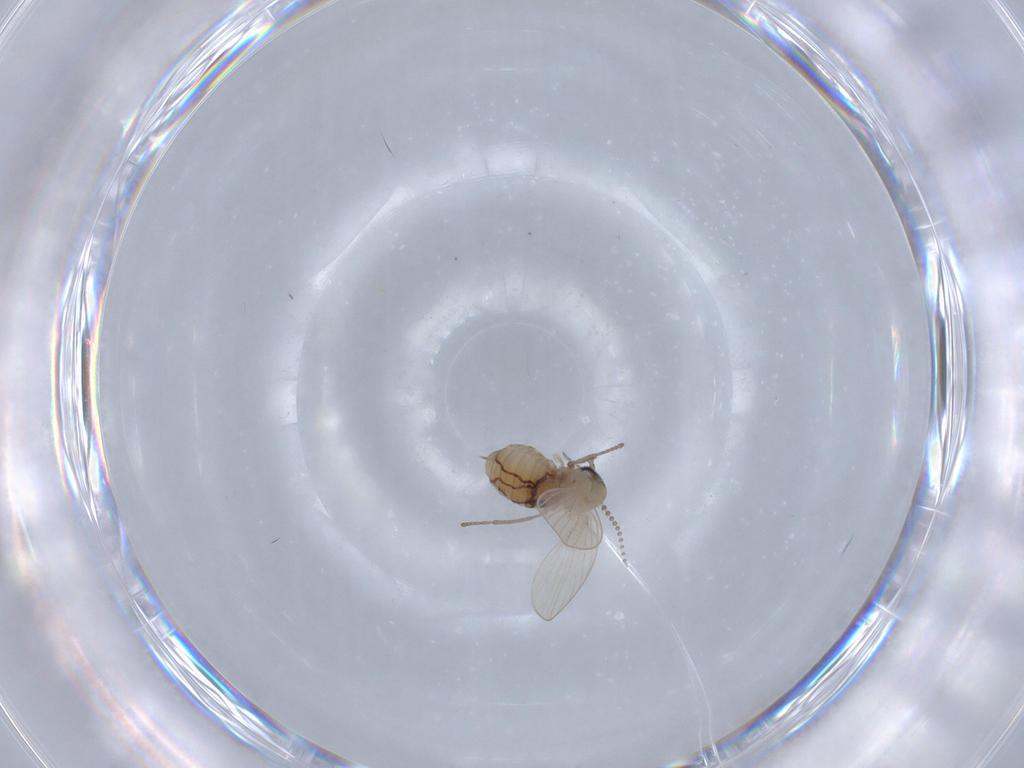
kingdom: Animalia
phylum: Arthropoda
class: Insecta
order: Diptera
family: Psychodidae
